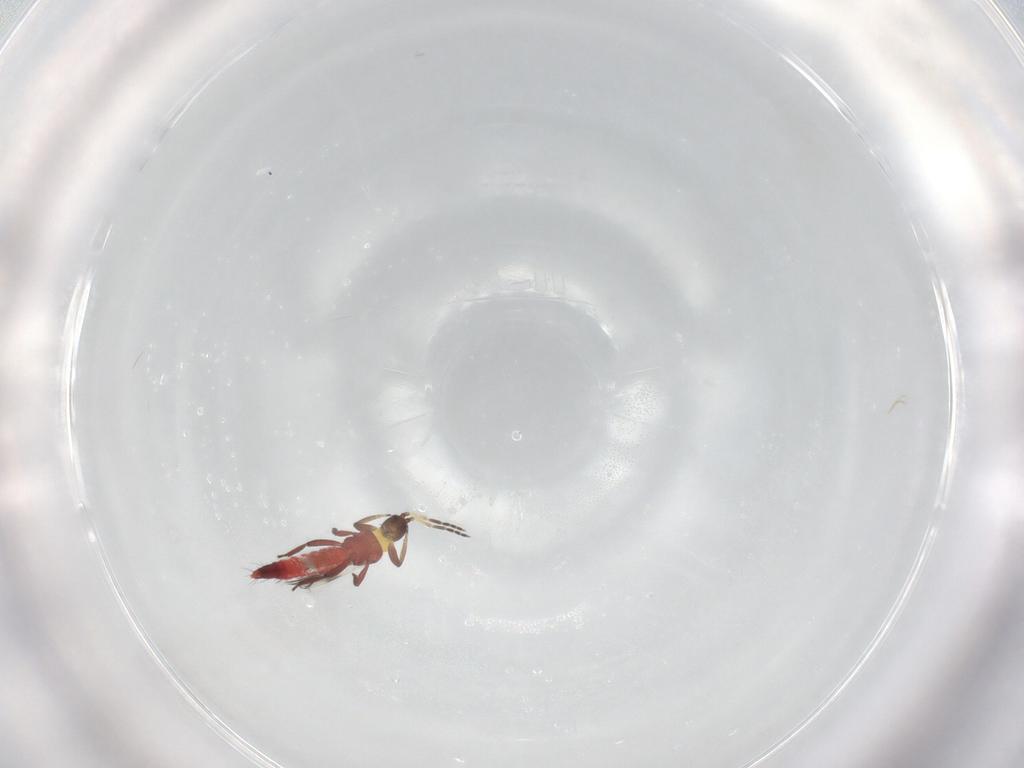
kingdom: Animalia
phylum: Arthropoda
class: Insecta
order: Thysanoptera
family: Aeolothripidae
